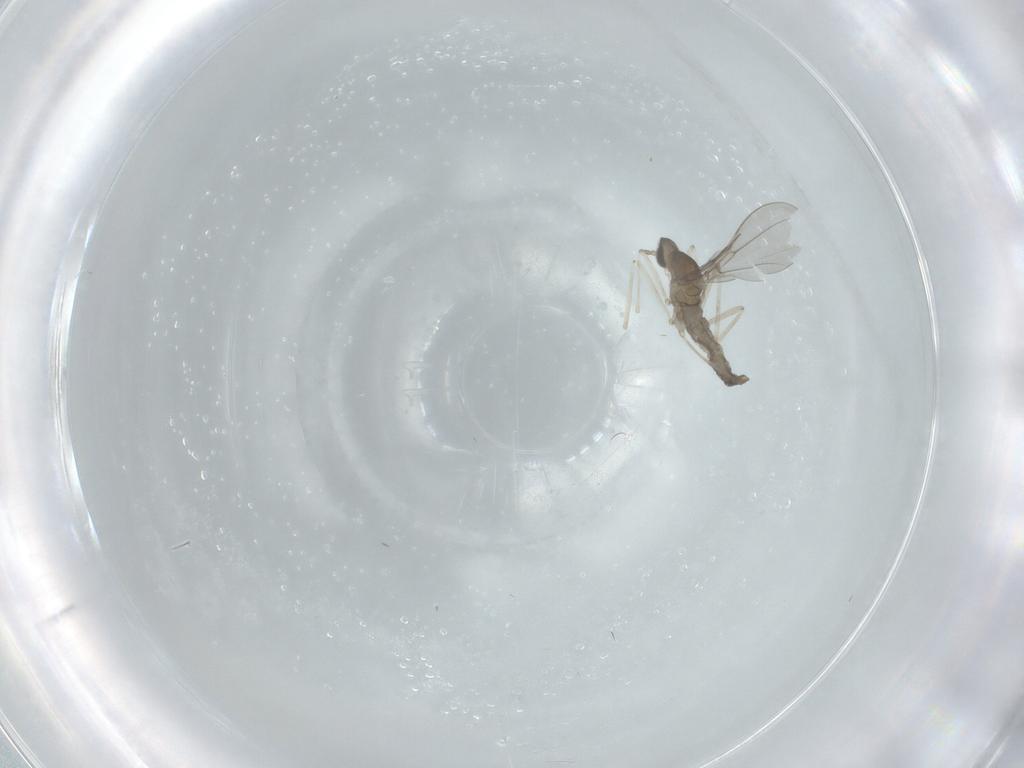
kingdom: Animalia
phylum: Arthropoda
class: Insecta
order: Diptera
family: Cecidomyiidae
